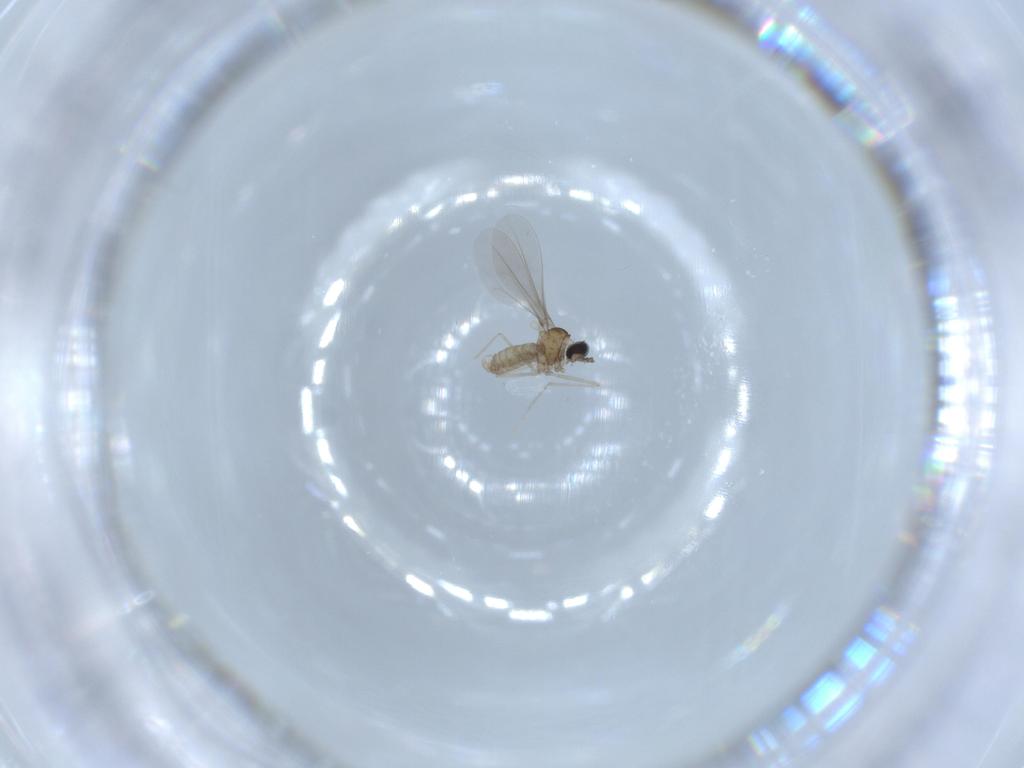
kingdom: Animalia
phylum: Arthropoda
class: Insecta
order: Diptera
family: Cecidomyiidae
